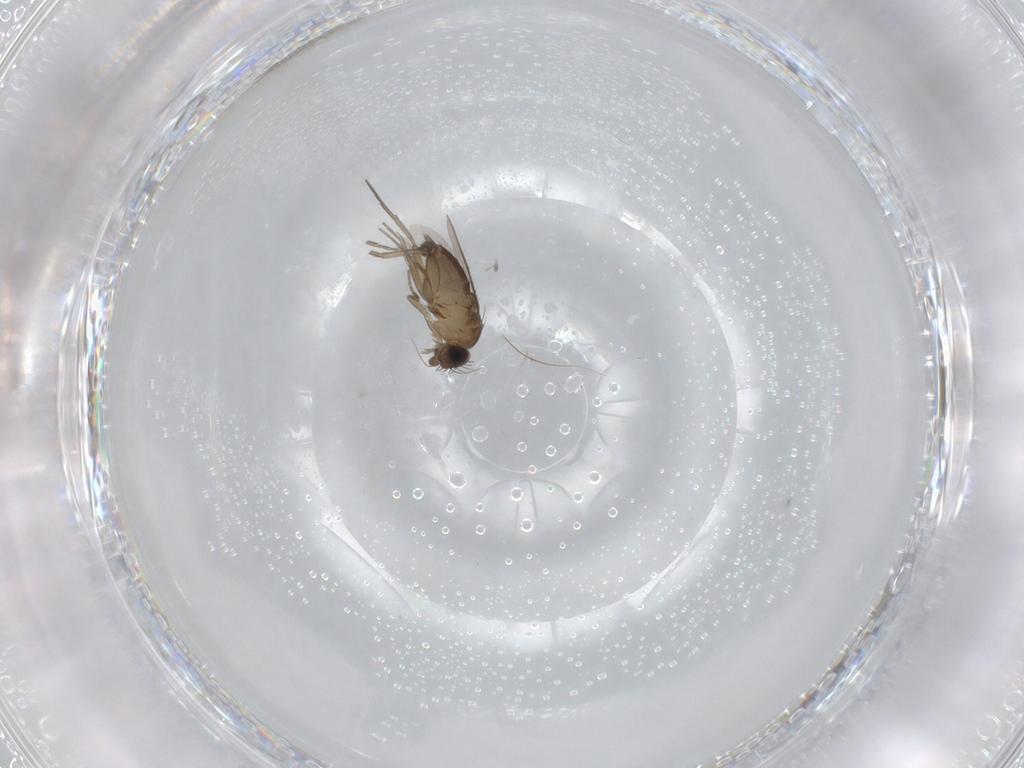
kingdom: Animalia
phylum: Arthropoda
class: Insecta
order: Diptera
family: Phoridae
